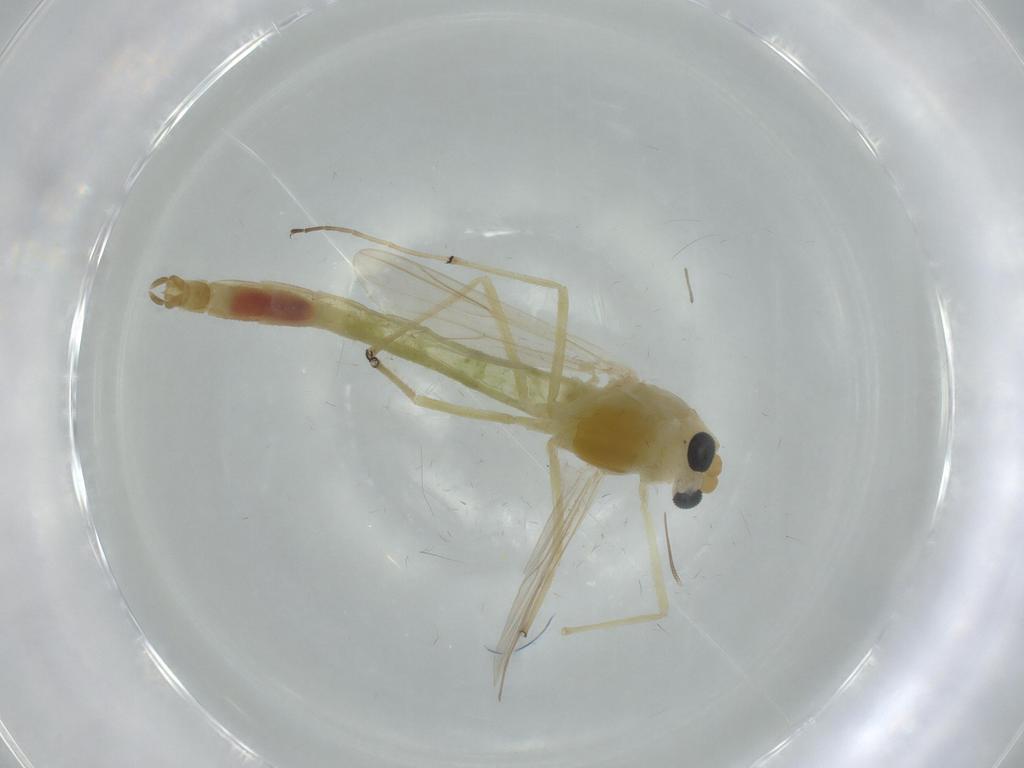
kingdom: Animalia
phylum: Arthropoda
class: Insecta
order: Diptera
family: Chironomidae
